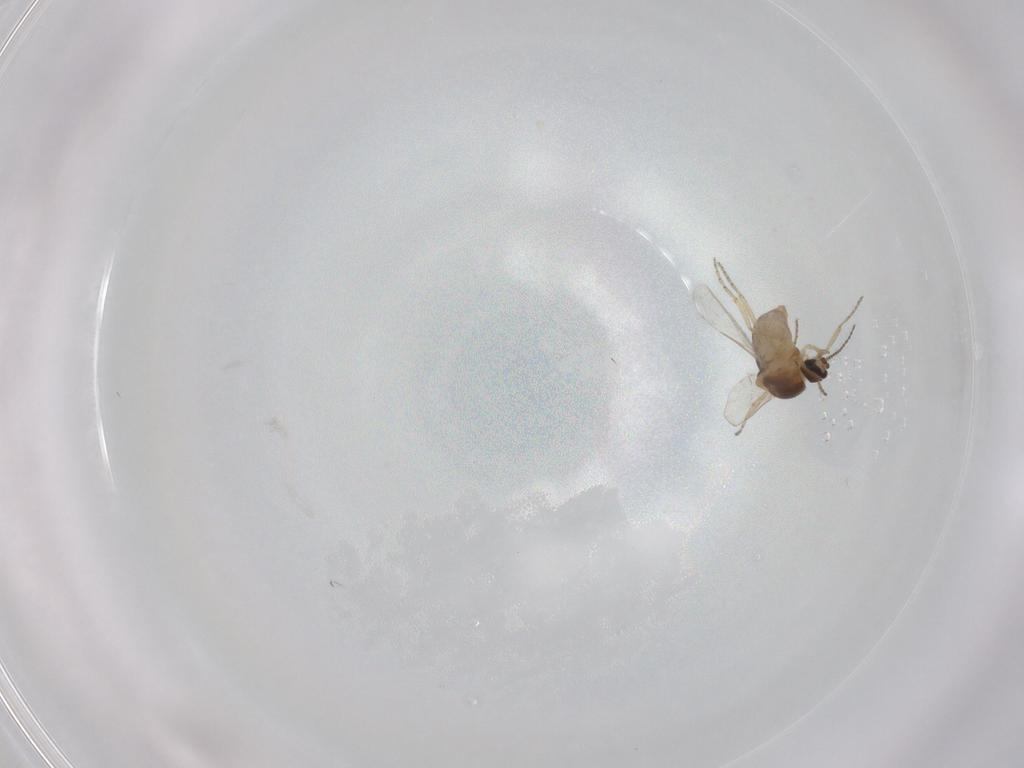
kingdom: Animalia
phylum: Arthropoda
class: Insecta
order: Diptera
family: Ceratopogonidae
